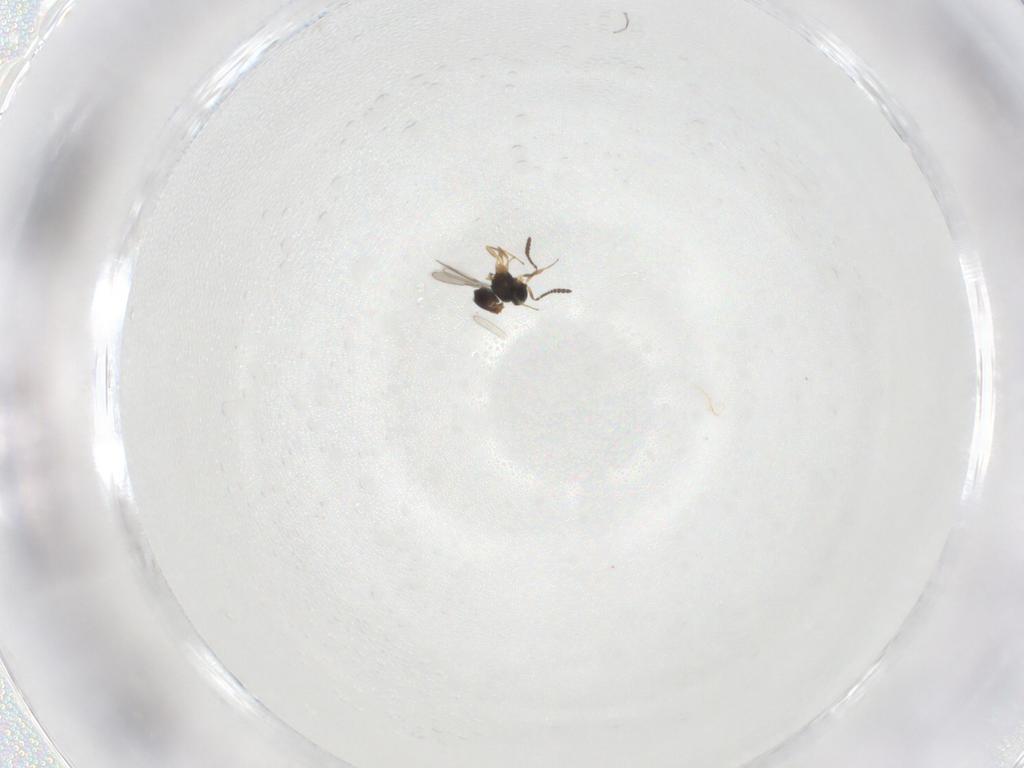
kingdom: Animalia
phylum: Arthropoda
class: Insecta
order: Hymenoptera
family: Scelionidae
